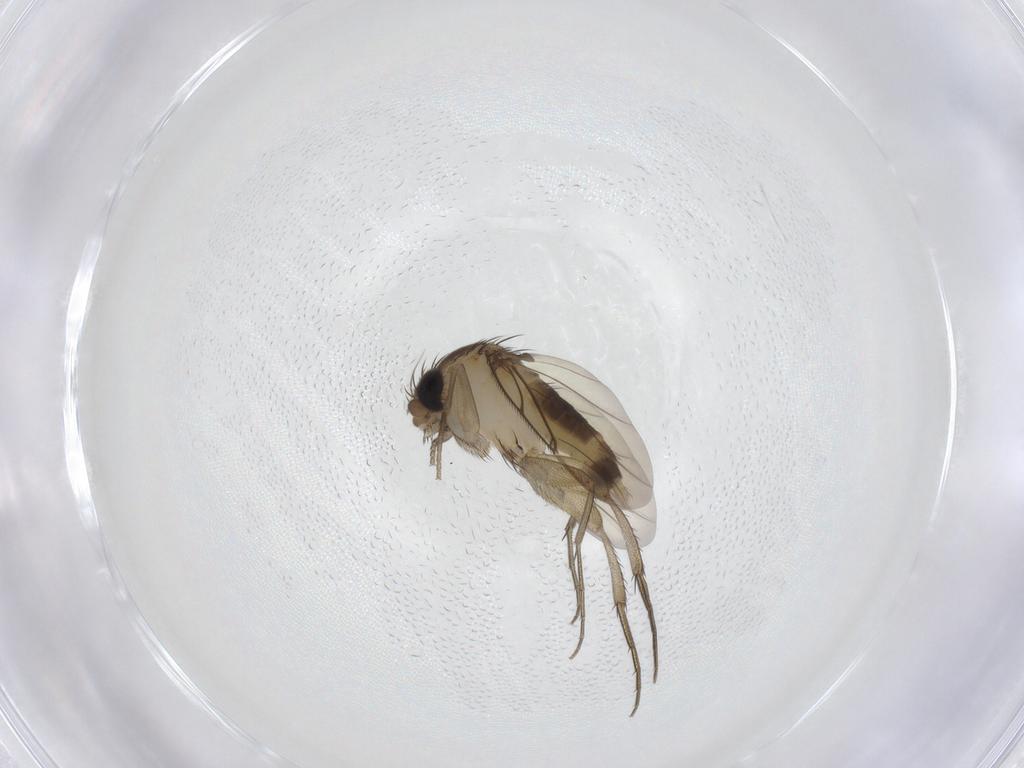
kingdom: Animalia
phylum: Arthropoda
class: Insecta
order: Diptera
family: Phoridae
